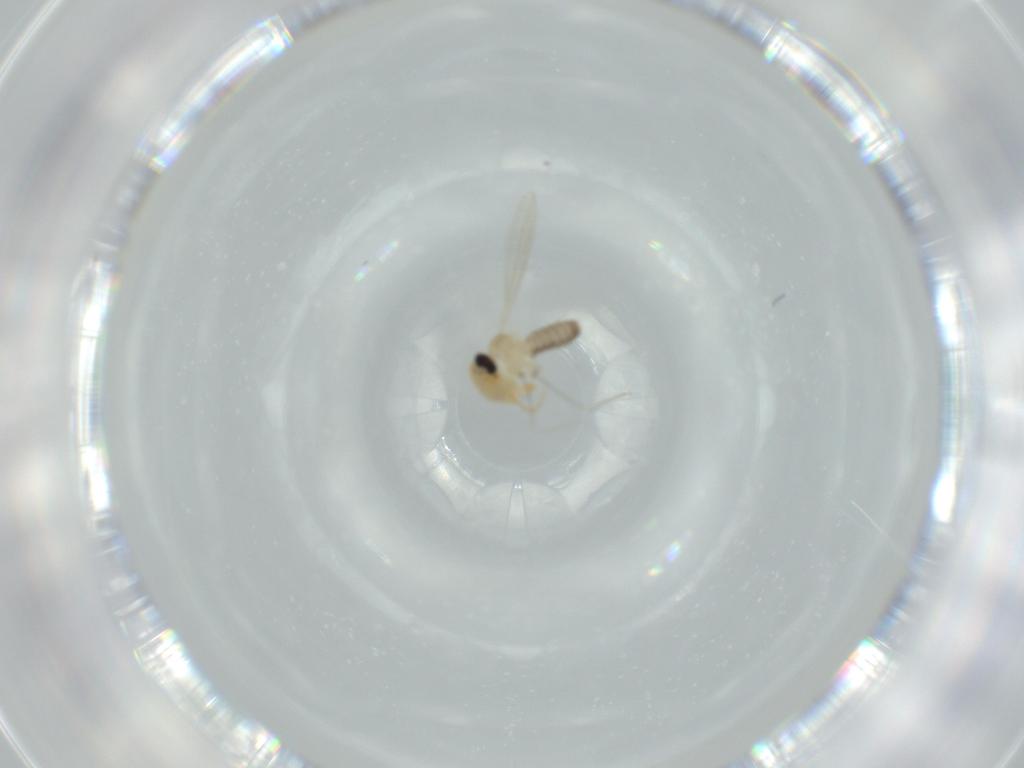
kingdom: Animalia
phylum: Arthropoda
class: Insecta
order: Diptera
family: Cecidomyiidae
